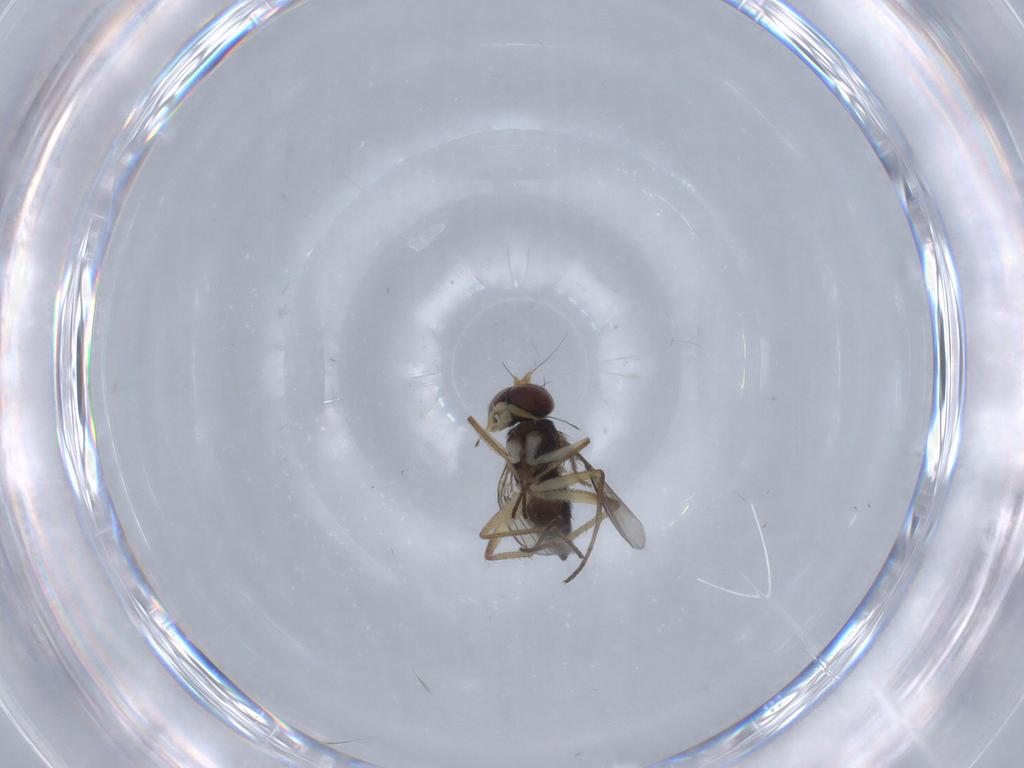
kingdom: Animalia
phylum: Arthropoda
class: Insecta
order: Diptera
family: Dolichopodidae
